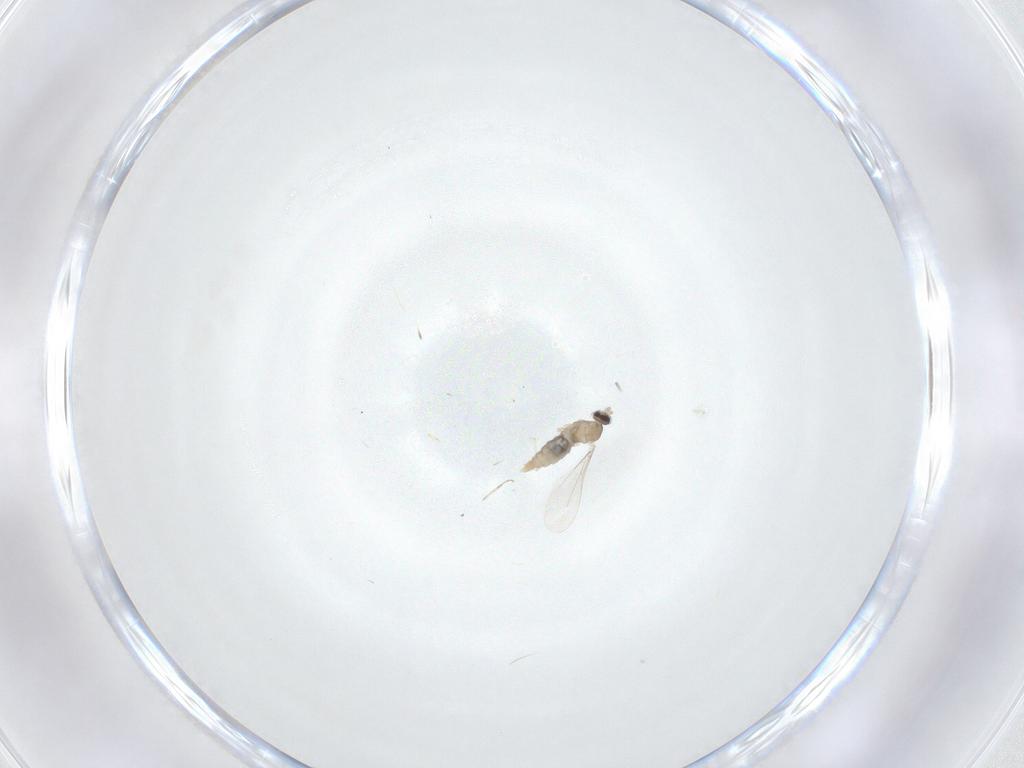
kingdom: Animalia
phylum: Arthropoda
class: Insecta
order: Diptera
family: Cecidomyiidae
